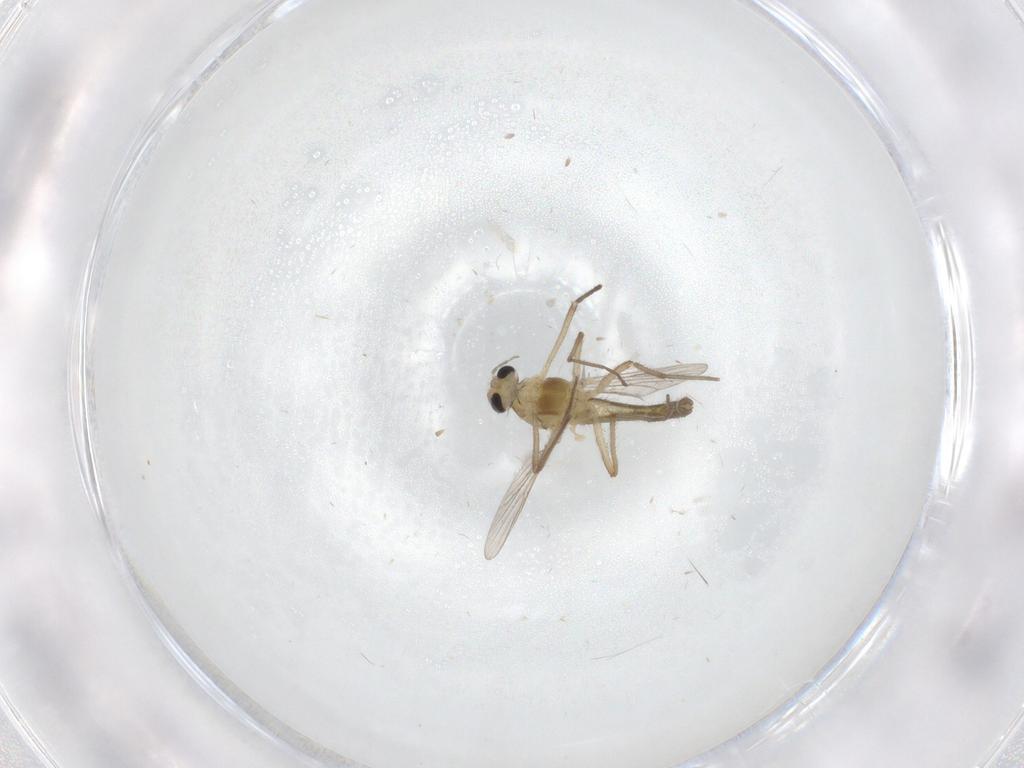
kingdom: Animalia
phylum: Arthropoda
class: Insecta
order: Diptera
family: Chironomidae
